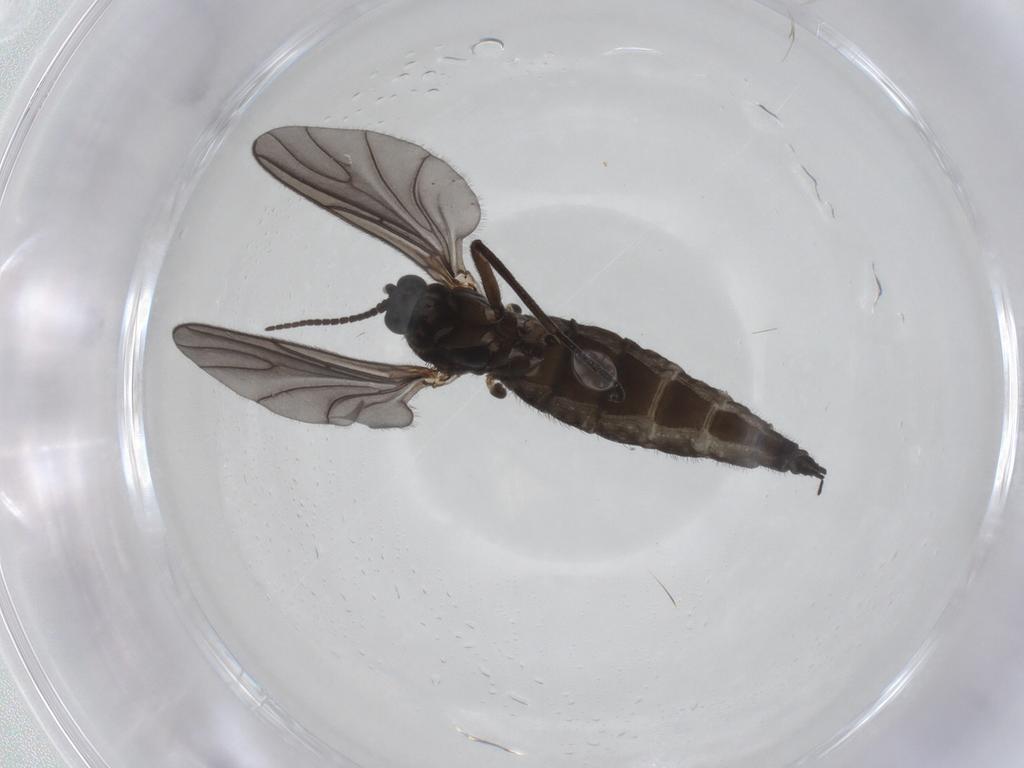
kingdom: Animalia
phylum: Arthropoda
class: Insecta
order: Diptera
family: Sciaridae
